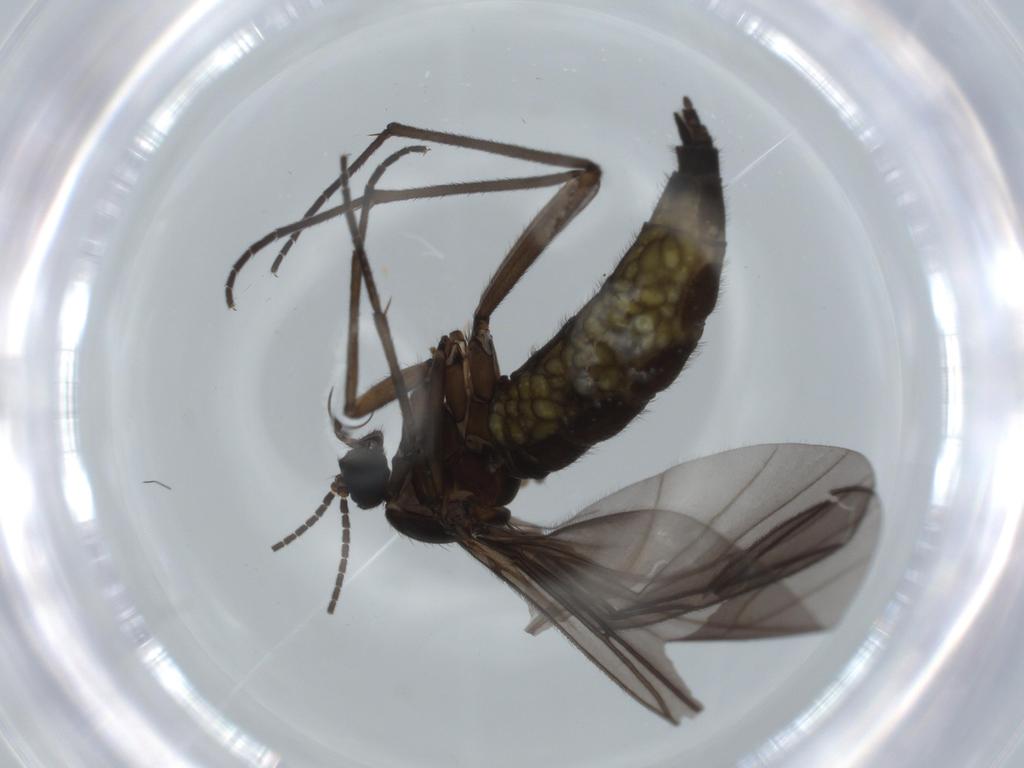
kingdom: Animalia
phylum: Arthropoda
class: Insecta
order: Diptera
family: Sciaridae
